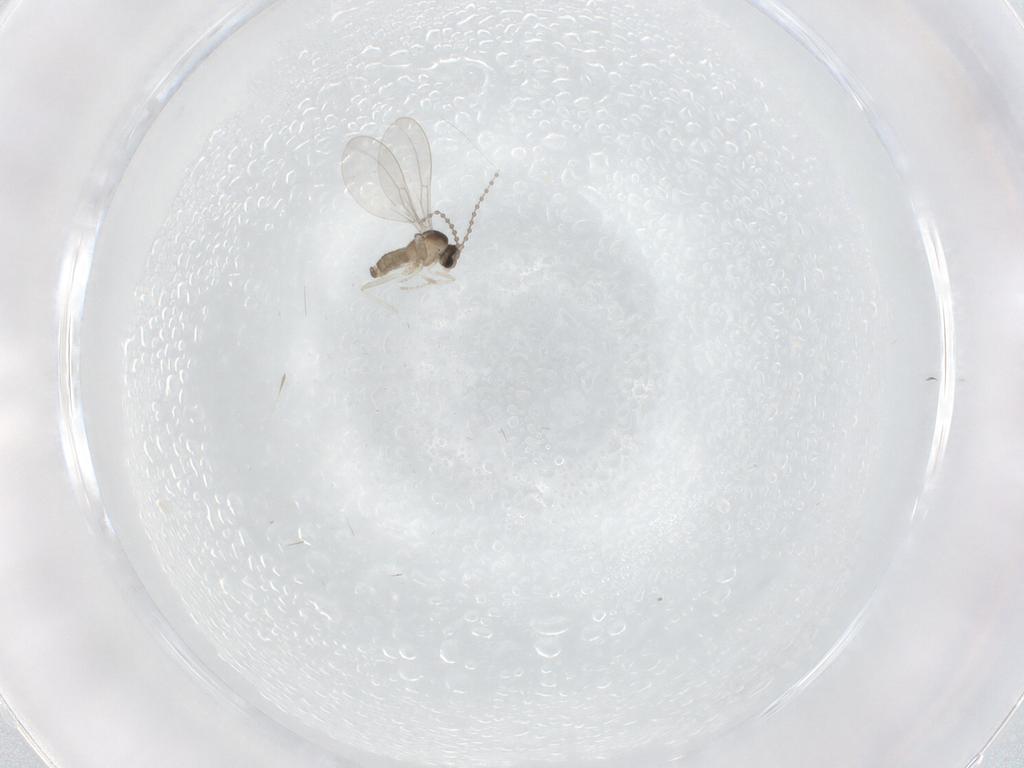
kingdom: Animalia
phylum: Arthropoda
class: Insecta
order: Diptera
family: Cecidomyiidae
